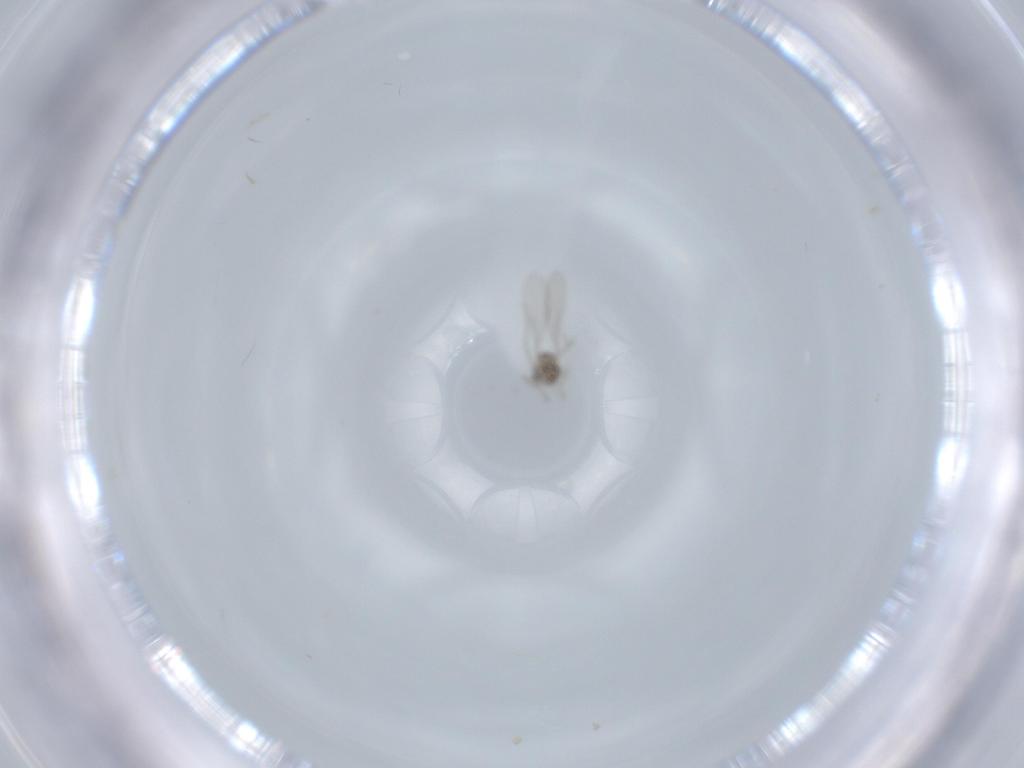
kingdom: Animalia
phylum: Arthropoda
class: Insecta
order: Diptera
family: Cecidomyiidae
